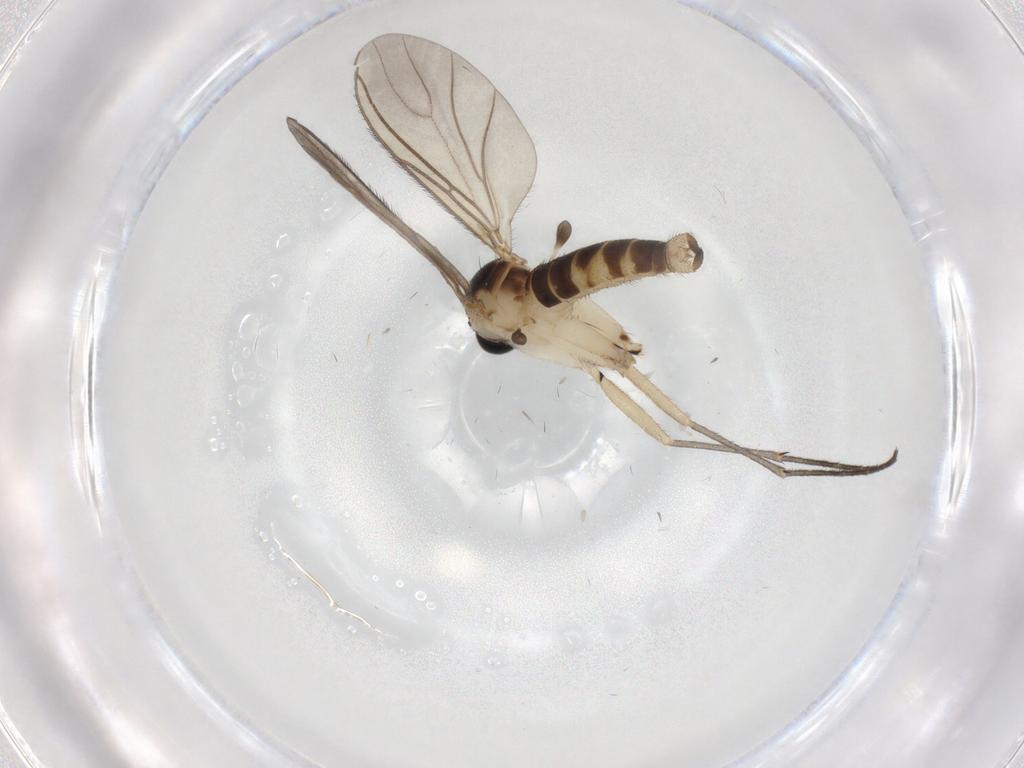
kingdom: Animalia
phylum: Arthropoda
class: Insecta
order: Diptera
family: Sciaridae
